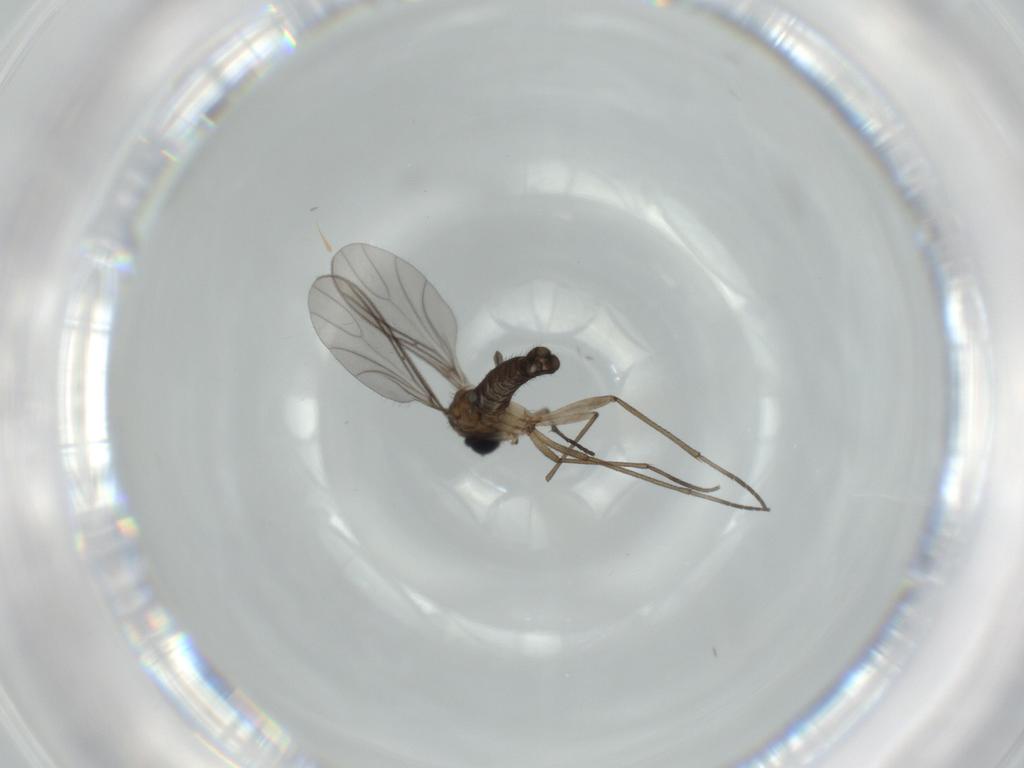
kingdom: Animalia
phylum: Arthropoda
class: Insecta
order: Diptera
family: Sciaridae
